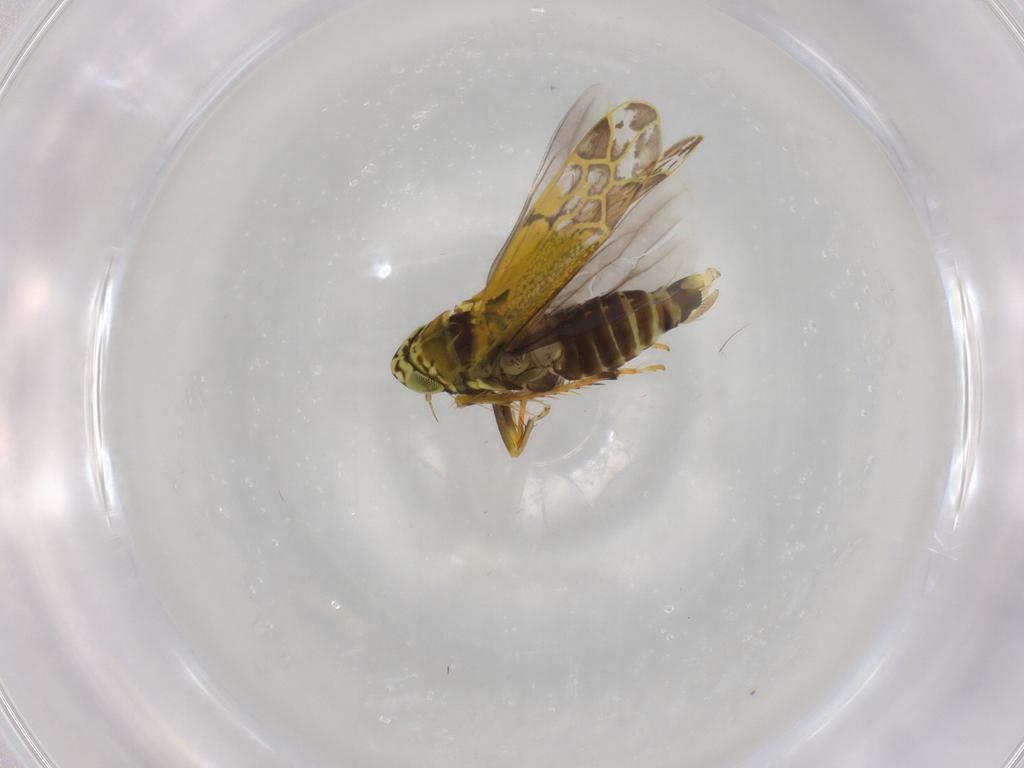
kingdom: Animalia
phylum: Arthropoda
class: Insecta
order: Hemiptera
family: Cicadellidae
